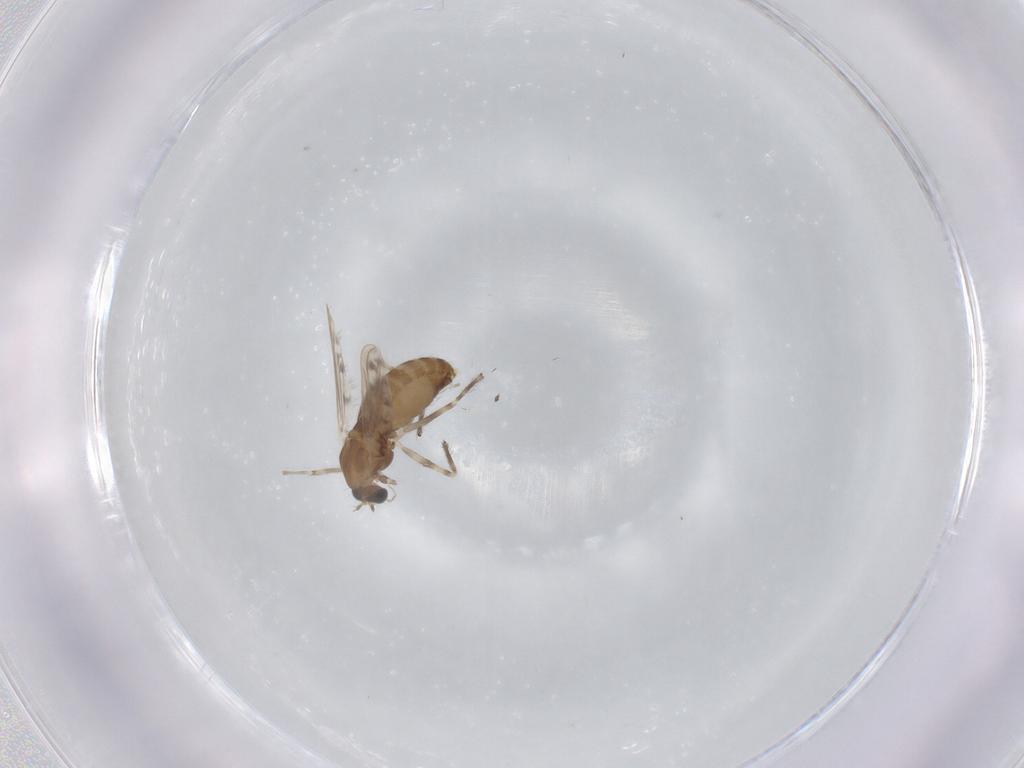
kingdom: Animalia
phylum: Arthropoda
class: Insecta
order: Diptera
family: Chironomidae
